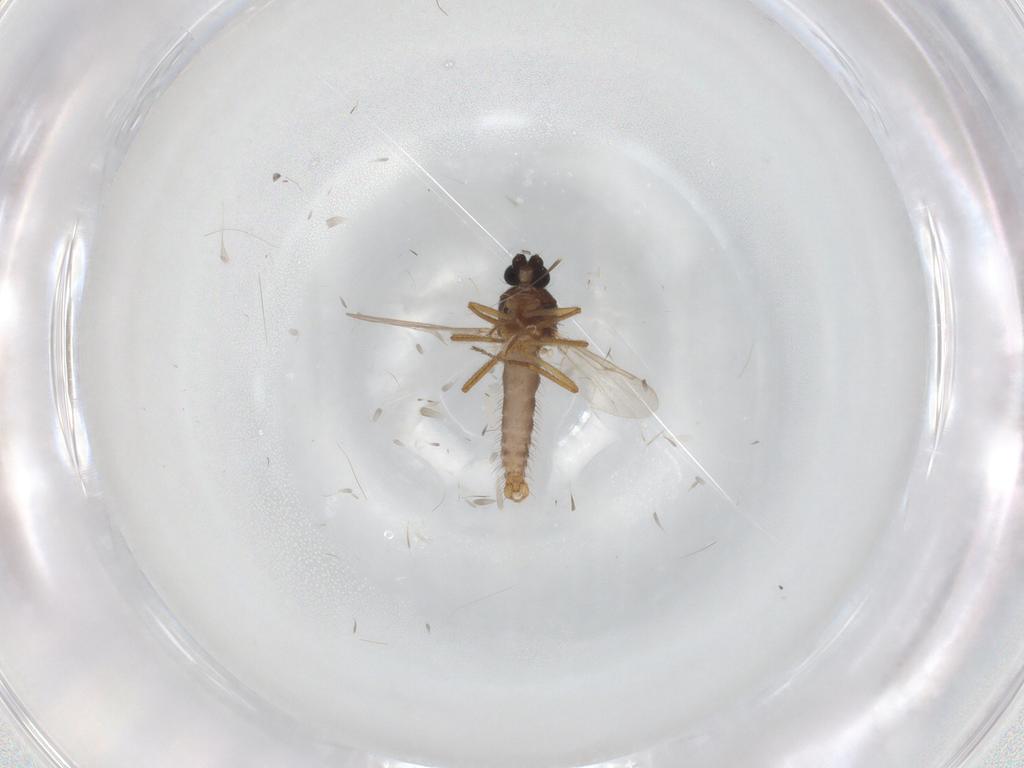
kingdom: Animalia
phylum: Arthropoda
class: Insecta
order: Diptera
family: Ceratopogonidae
